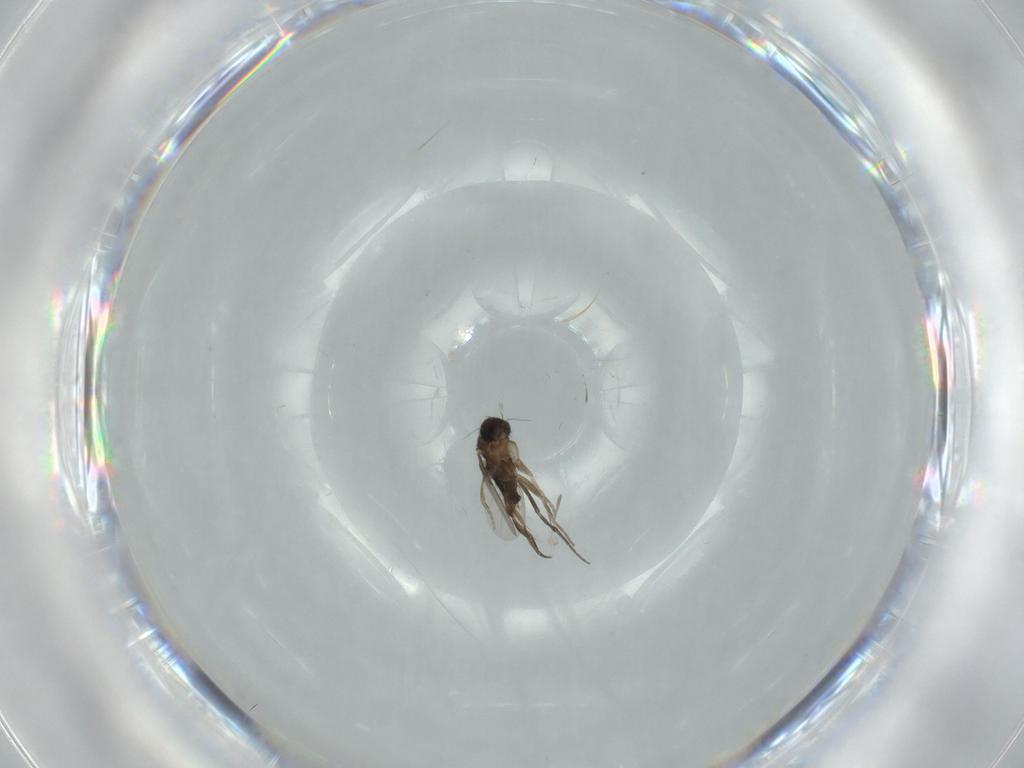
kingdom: Animalia
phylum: Arthropoda
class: Insecta
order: Diptera
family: Phoridae
